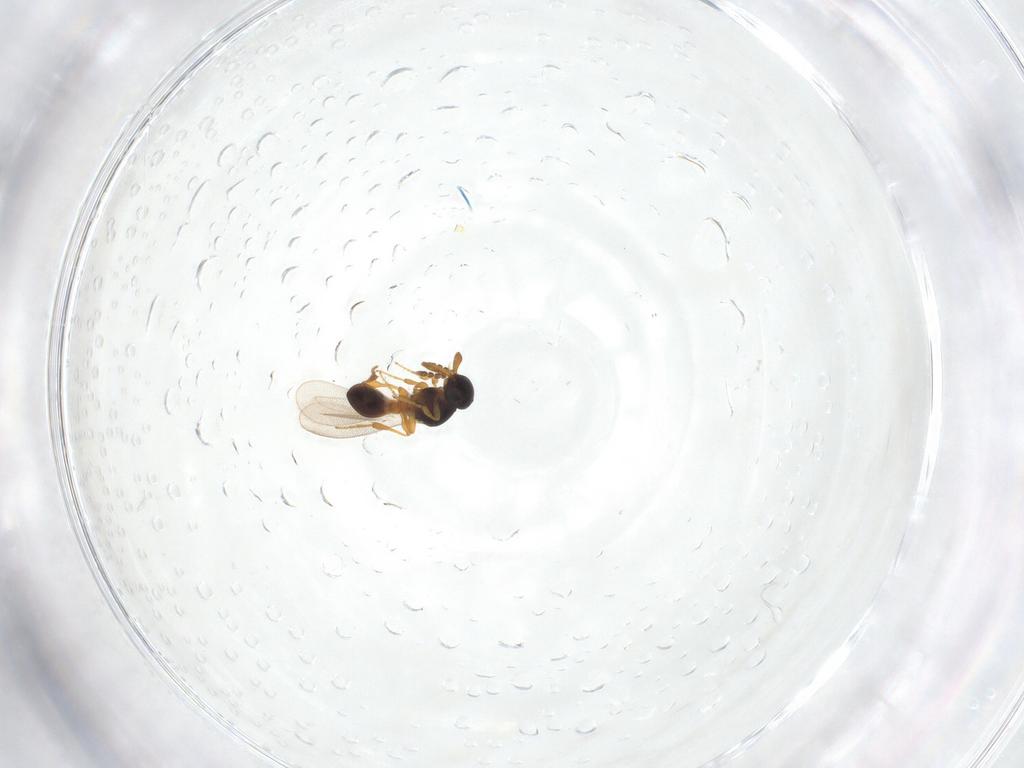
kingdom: Animalia
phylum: Arthropoda
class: Insecta
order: Hymenoptera
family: Platygastridae
